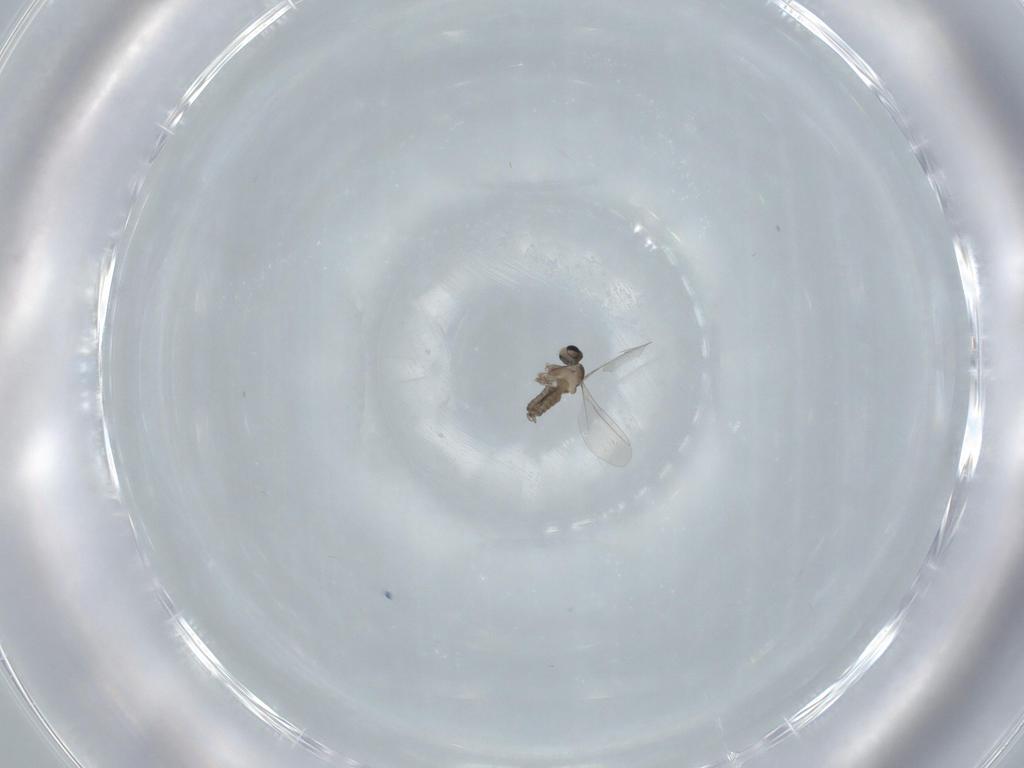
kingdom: Animalia
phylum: Arthropoda
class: Insecta
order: Diptera
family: Cecidomyiidae
